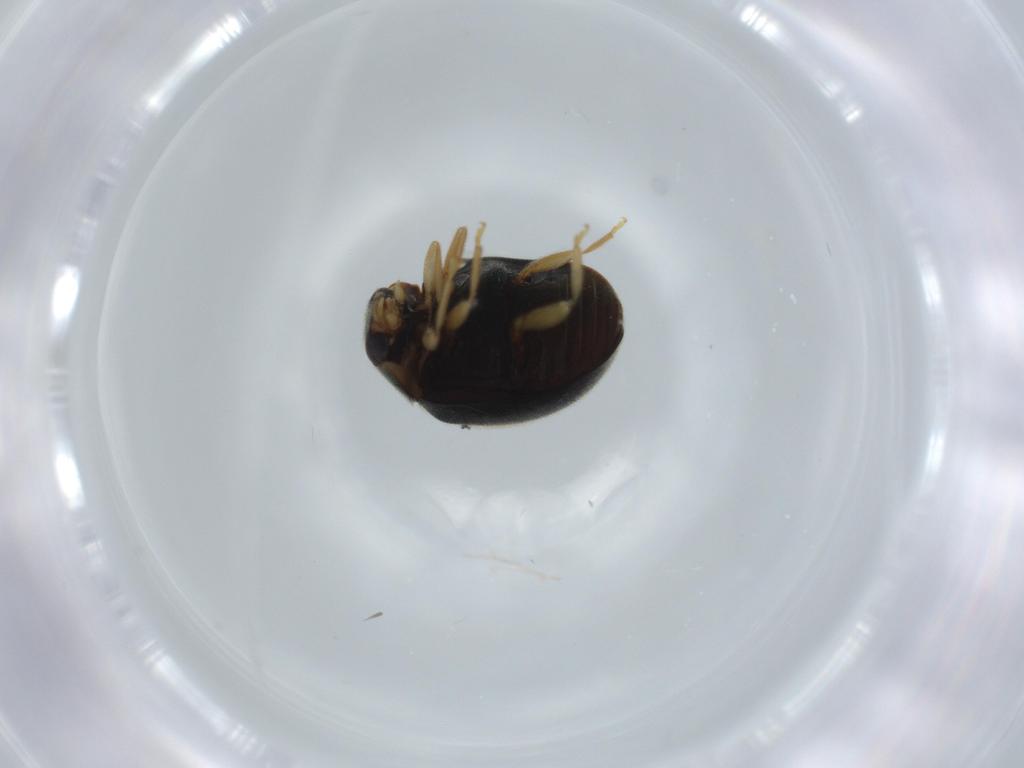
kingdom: Animalia
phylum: Arthropoda
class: Insecta
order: Coleoptera
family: Coccinellidae
